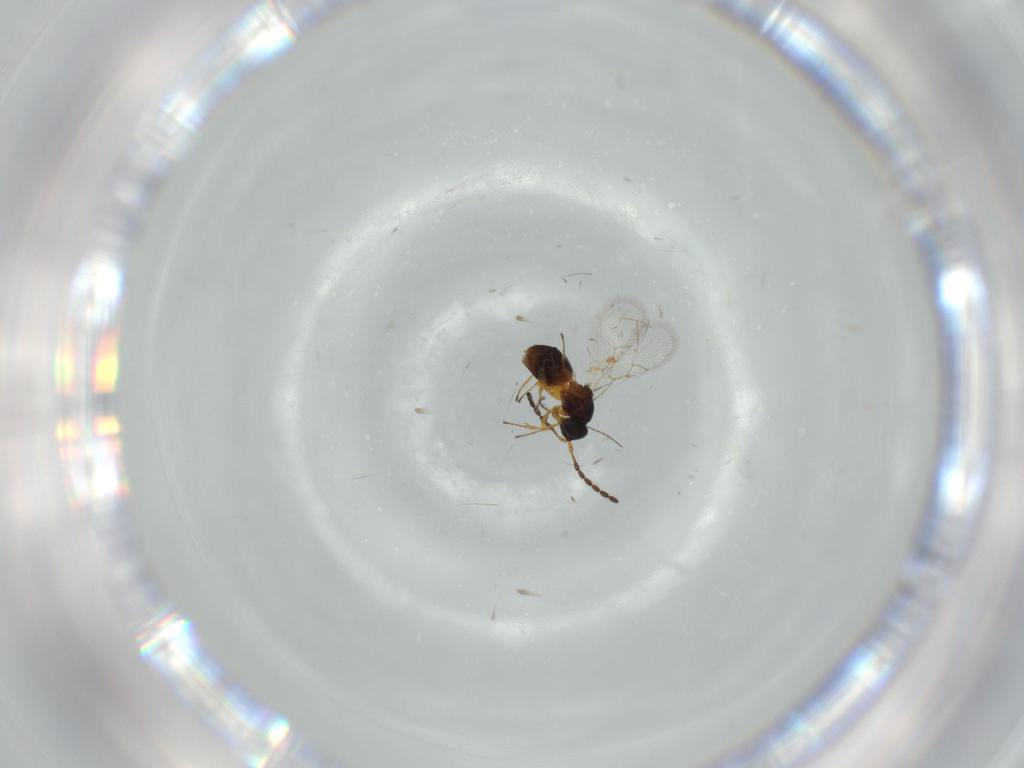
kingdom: Animalia
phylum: Arthropoda
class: Insecta
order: Hymenoptera
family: Figitidae
